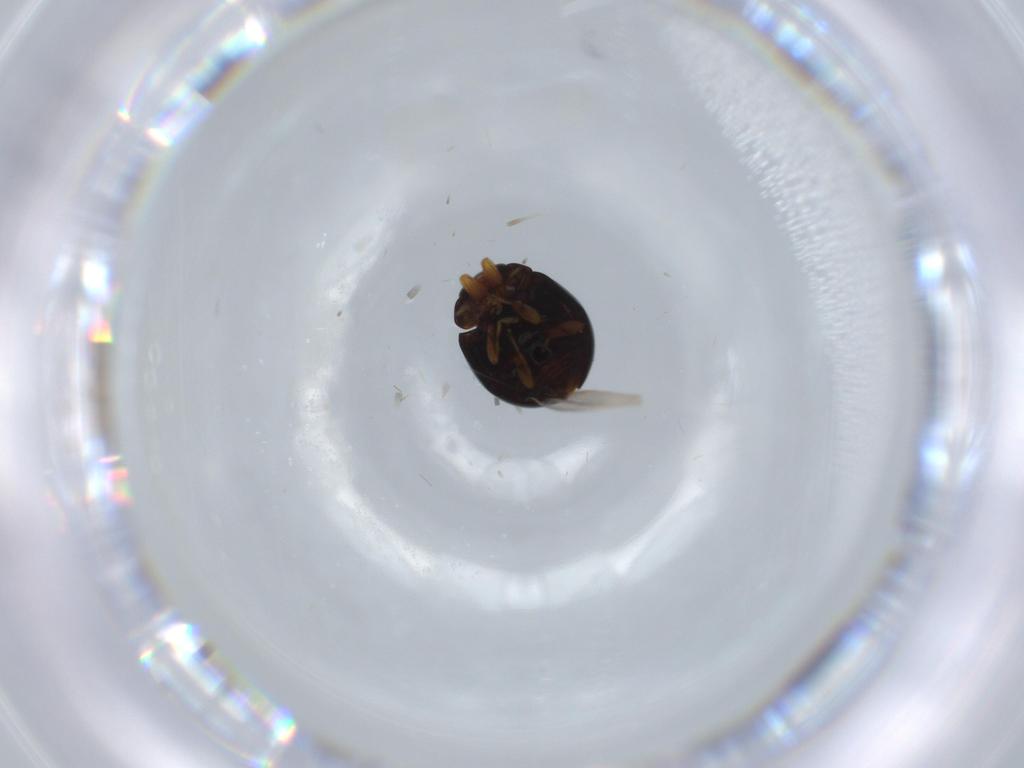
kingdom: Animalia
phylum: Arthropoda
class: Insecta
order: Coleoptera
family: Coccinellidae
